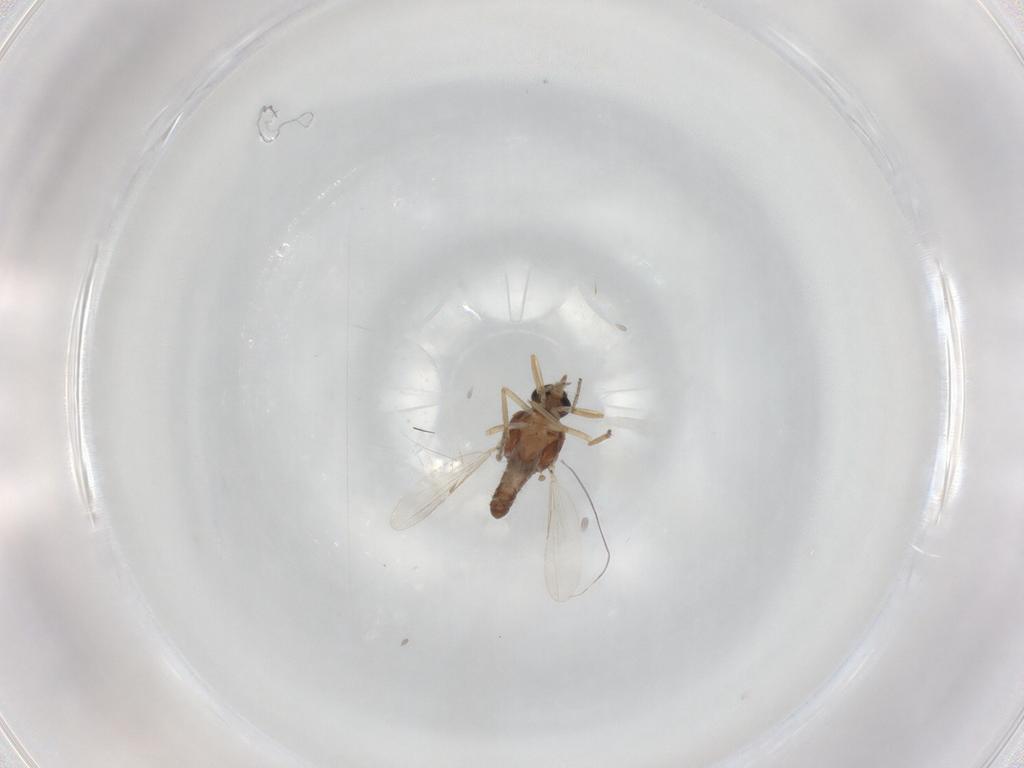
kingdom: Animalia
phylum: Arthropoda
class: Insecta
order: Diptera
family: Ceratopogonidae
